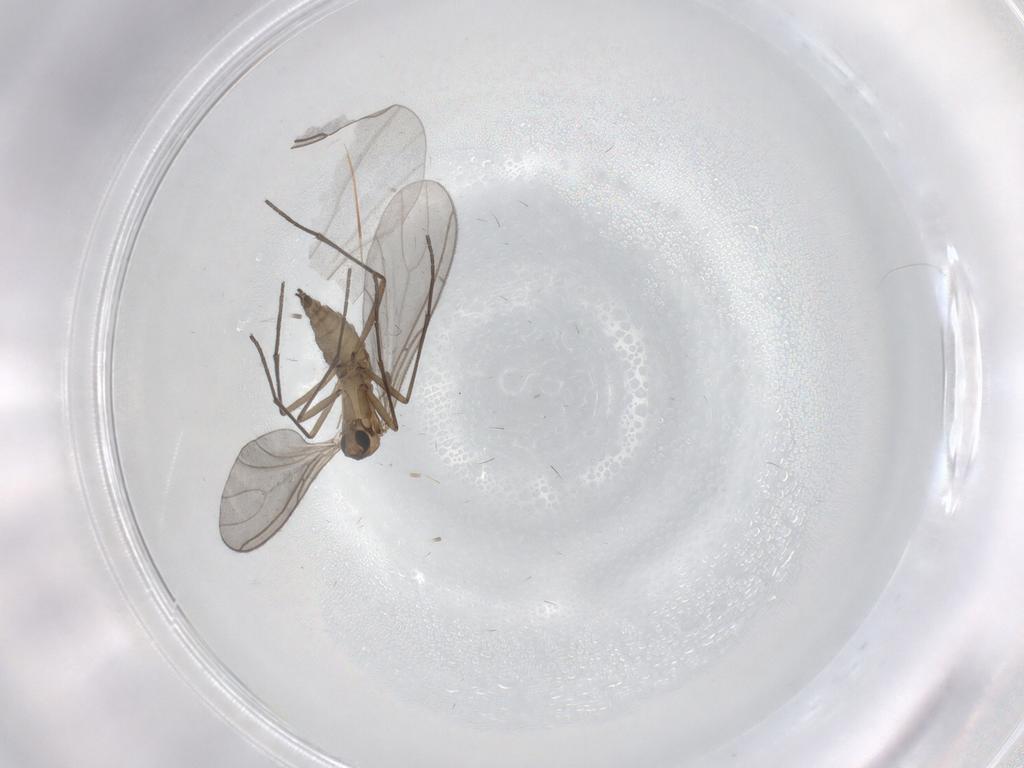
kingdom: Animalia
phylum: Arthropoda
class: Insecta
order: Diptera
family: Sciaridae
